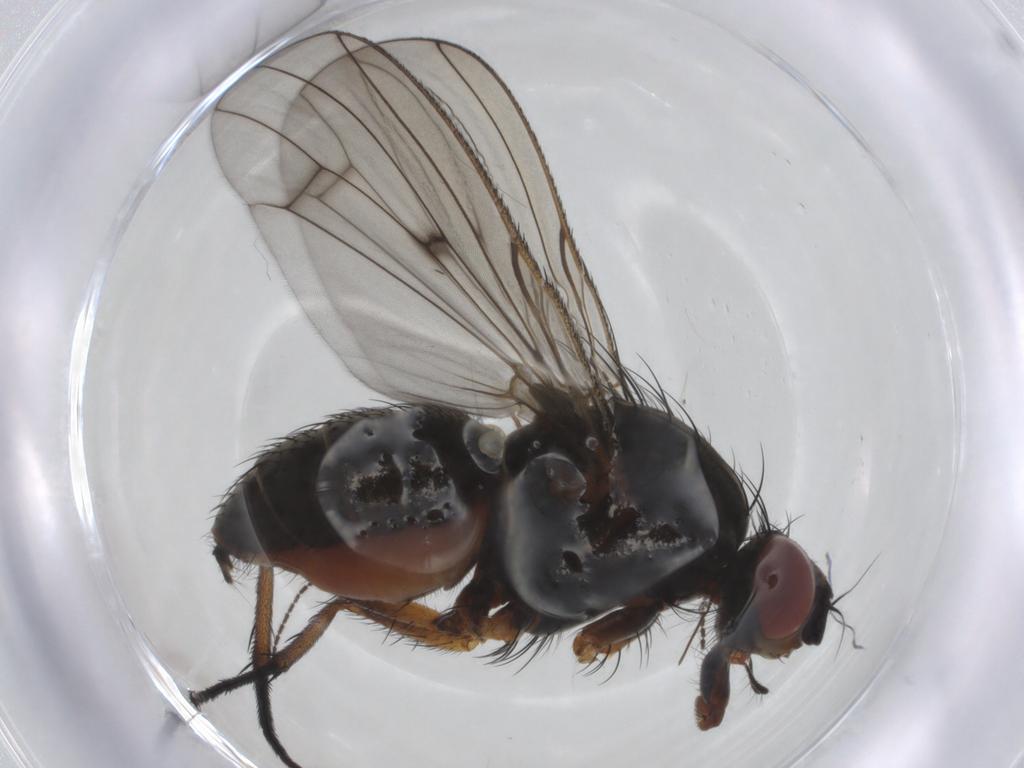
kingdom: Animalia
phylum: Arthropoda
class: Insecta
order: Diptera
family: Anthomyiidae
